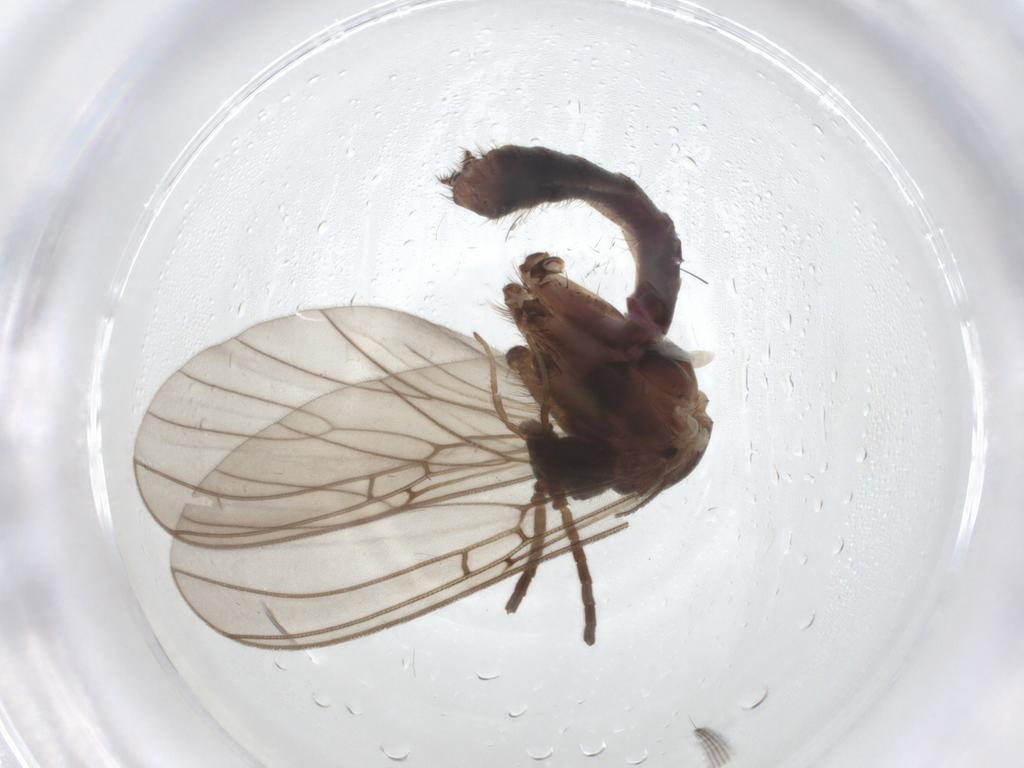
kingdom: Animalia
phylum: Arthropoda
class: Insecta
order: Diptera
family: Mycetophilidae
